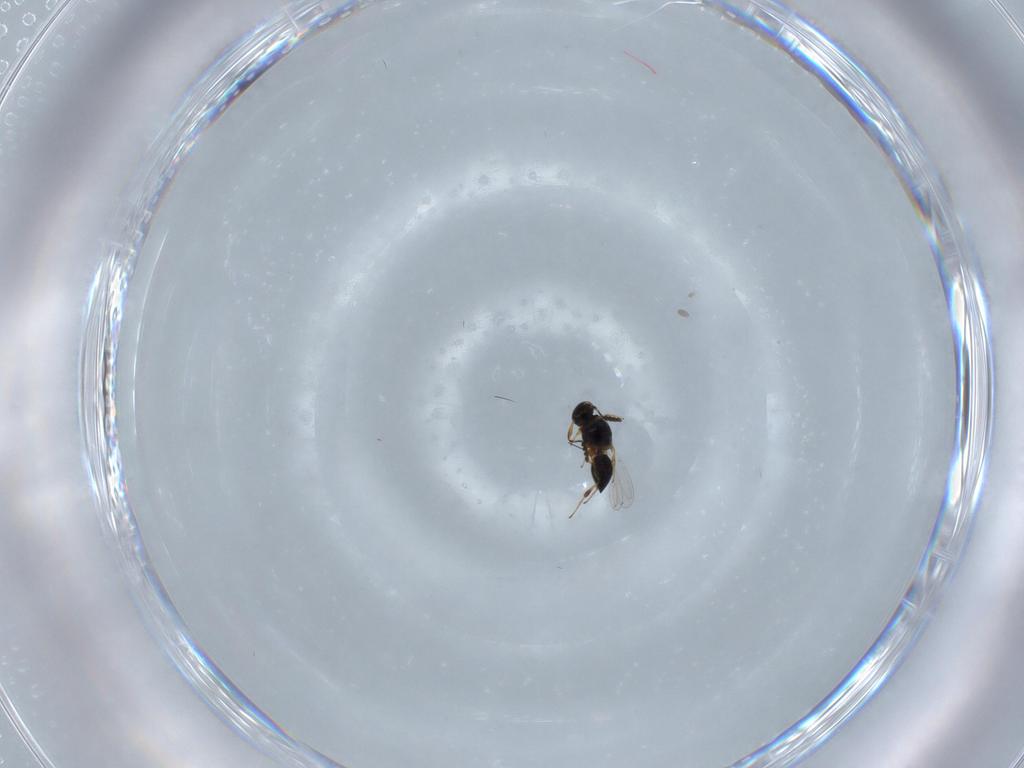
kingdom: Animalia
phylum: Arthropoda
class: Insecta
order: Hymenoptera
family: Platygastridae
